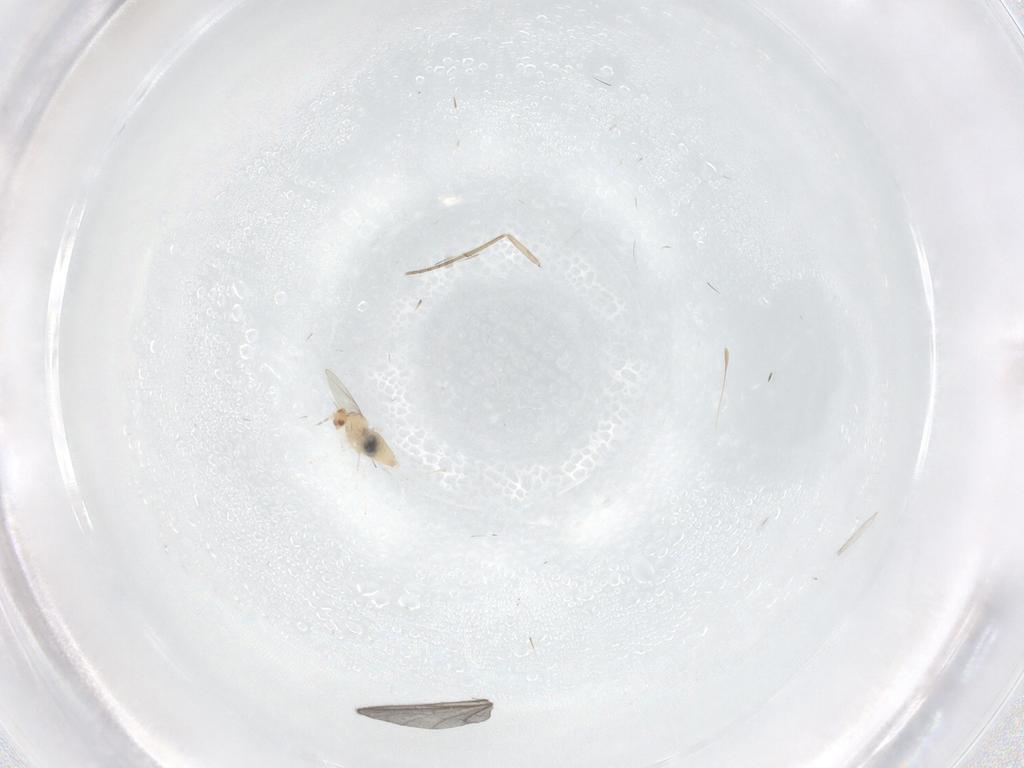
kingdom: Animalia
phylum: Arthropoda
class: Insecta
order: Diptera
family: Cecidomyiidae
